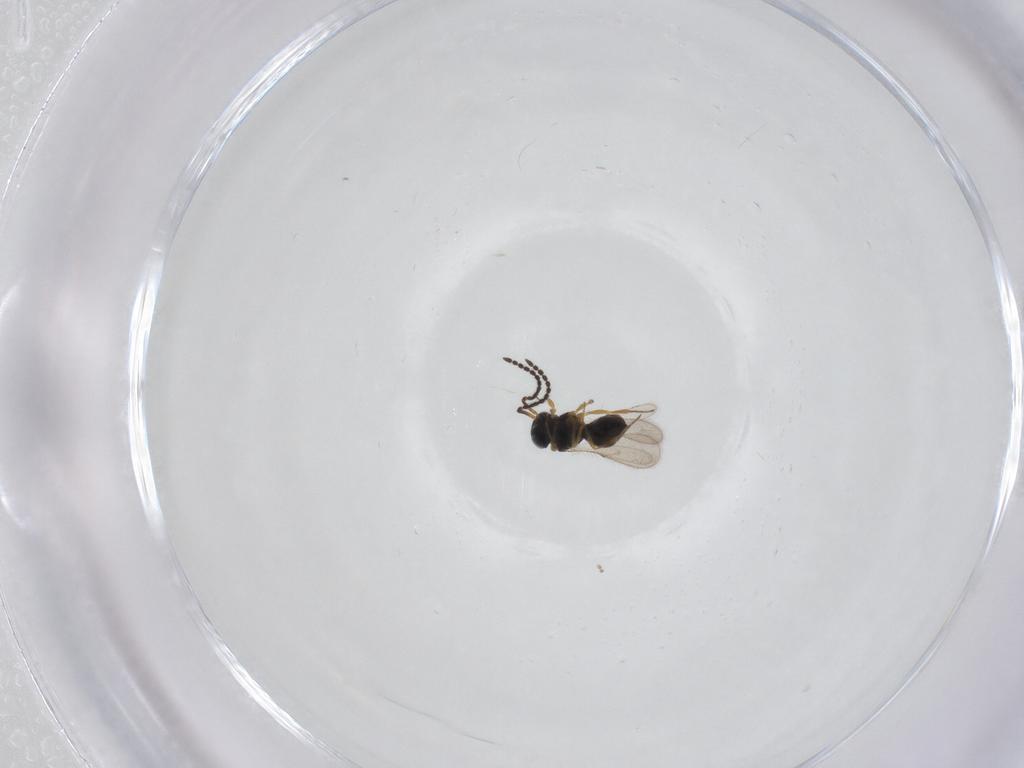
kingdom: Animalia
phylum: Arthropoda
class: Insecta
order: Hymenoptera
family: Scelionidae
